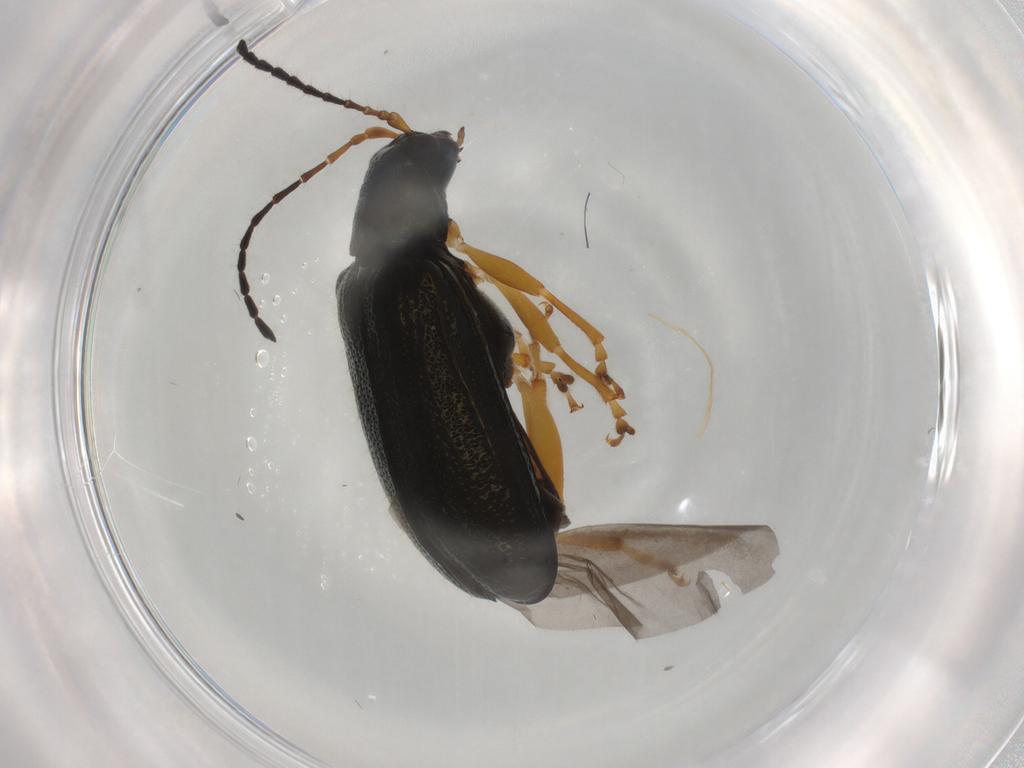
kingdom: Animalia
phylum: Arthropoda
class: Insecta
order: Coleoptera
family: Chrysomelidae
